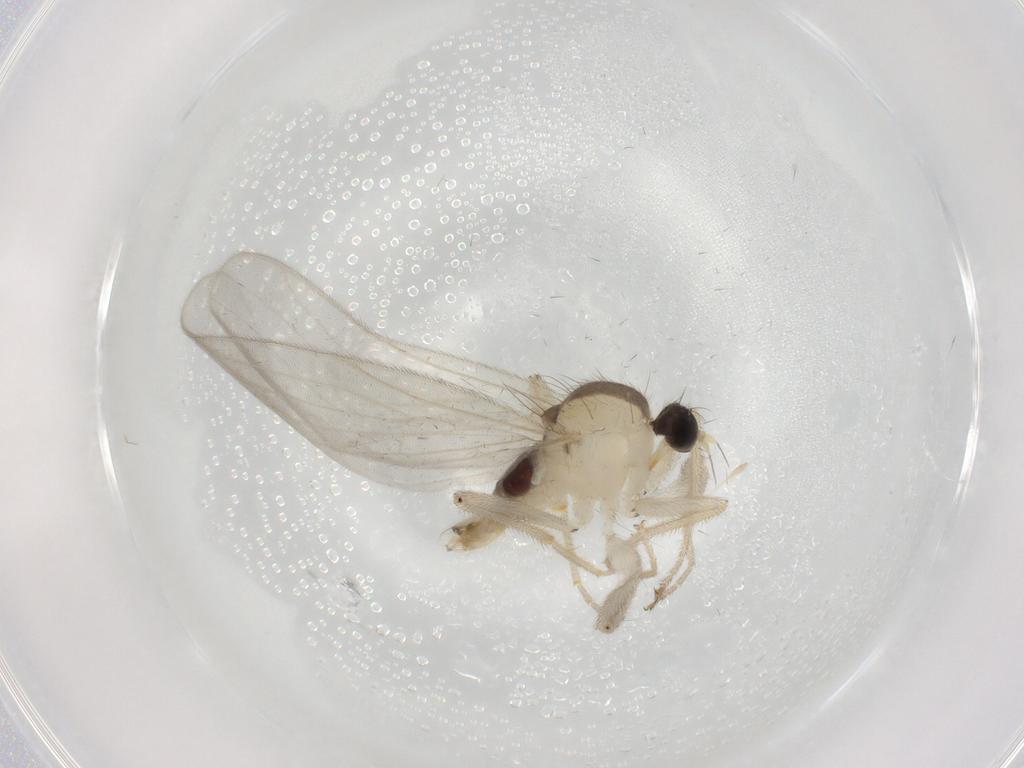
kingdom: Animalia
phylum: Arthropoda
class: Insecta
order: Diptera
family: Hybotidae
